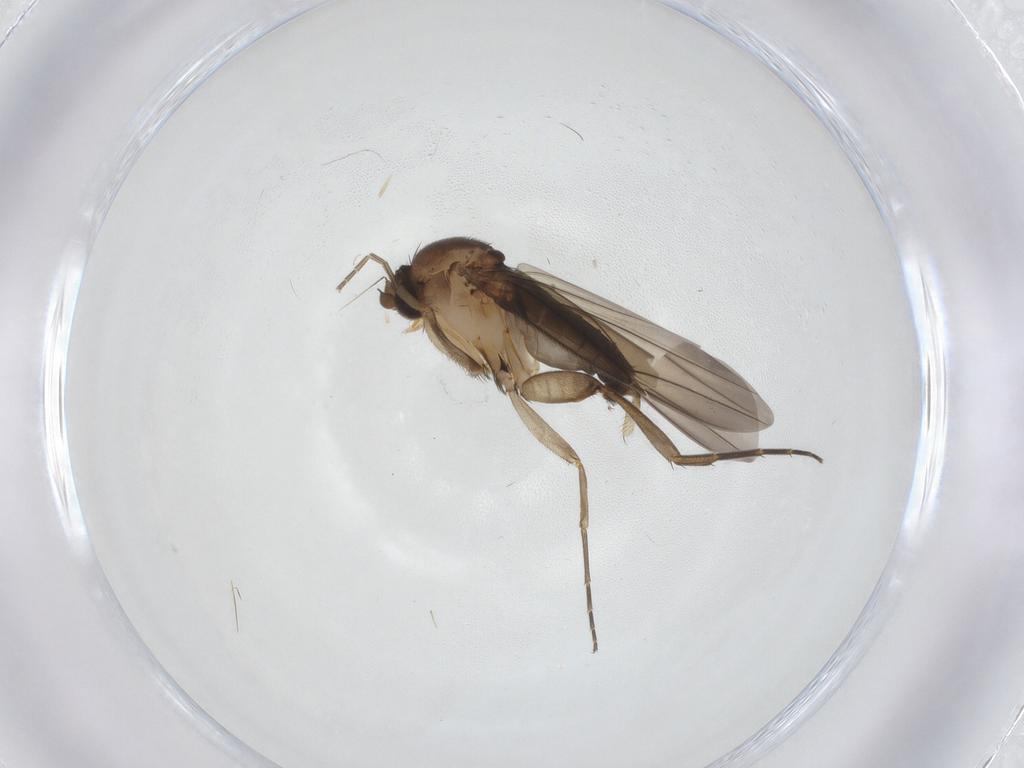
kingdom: Animalia
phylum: Arthropoda
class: Insecta
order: Diptera
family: Phoridae
